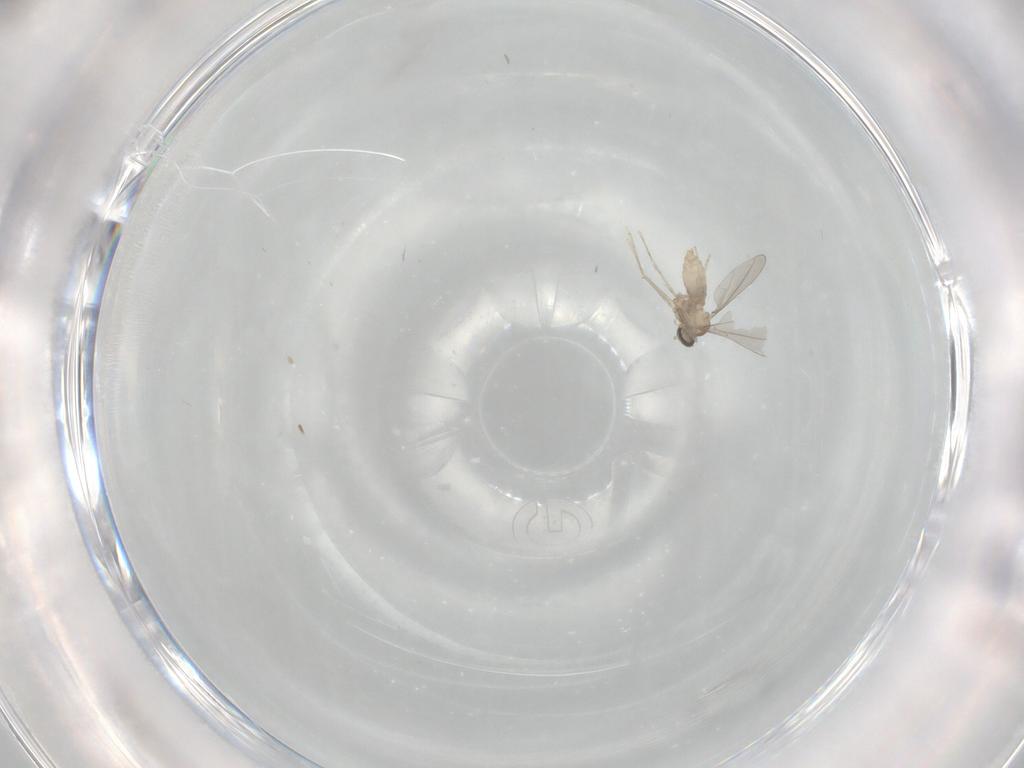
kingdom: Animalia
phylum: Arthropoda
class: Insecta
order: Diptera
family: Cecidomyiidae
